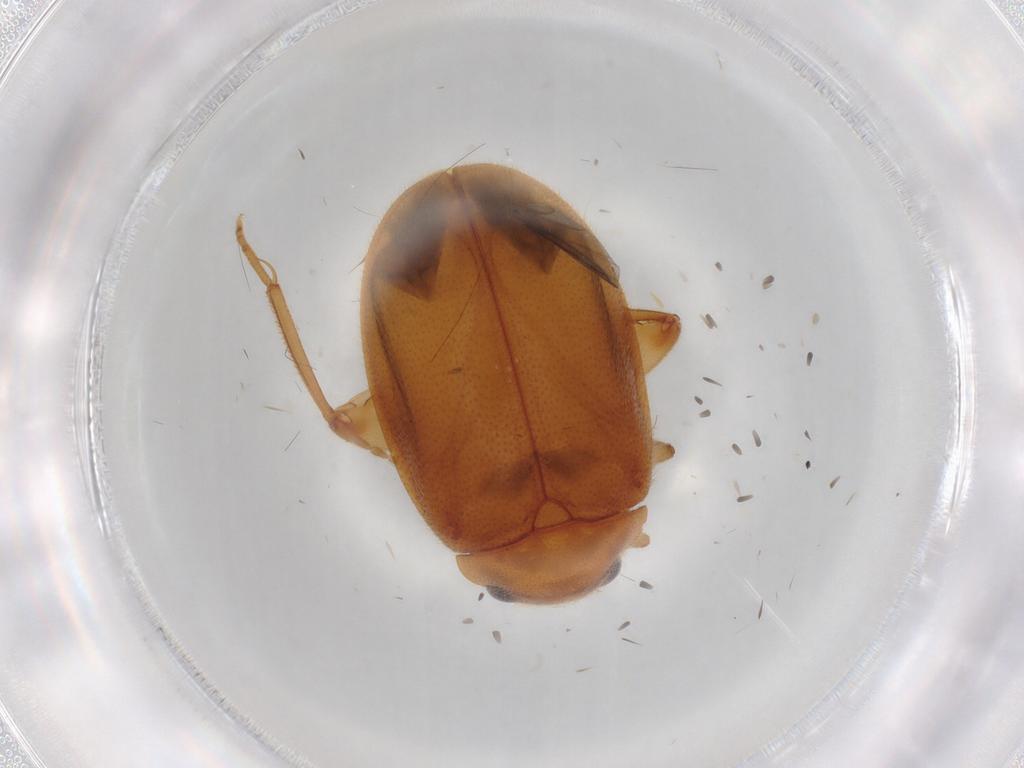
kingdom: Animalia
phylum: Arthropoda
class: Insecta
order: Coleoptera
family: Scirtidae
